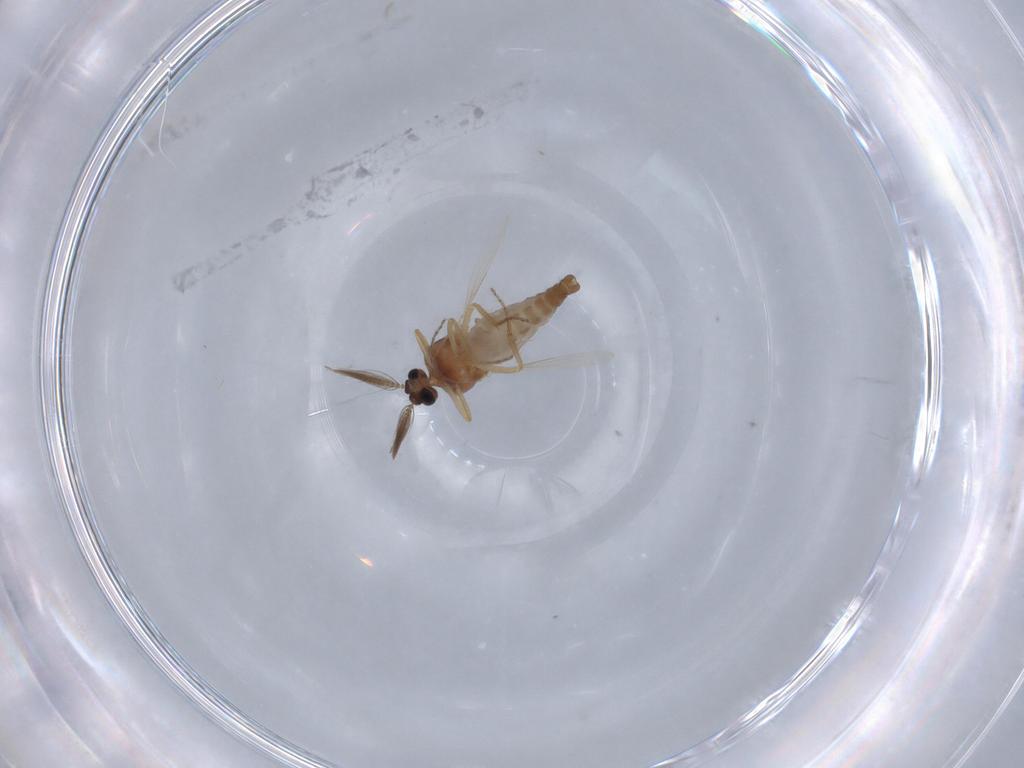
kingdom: Animalia
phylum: Arthropoda
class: Insecta
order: Diptera
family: Ceratopogonidae
